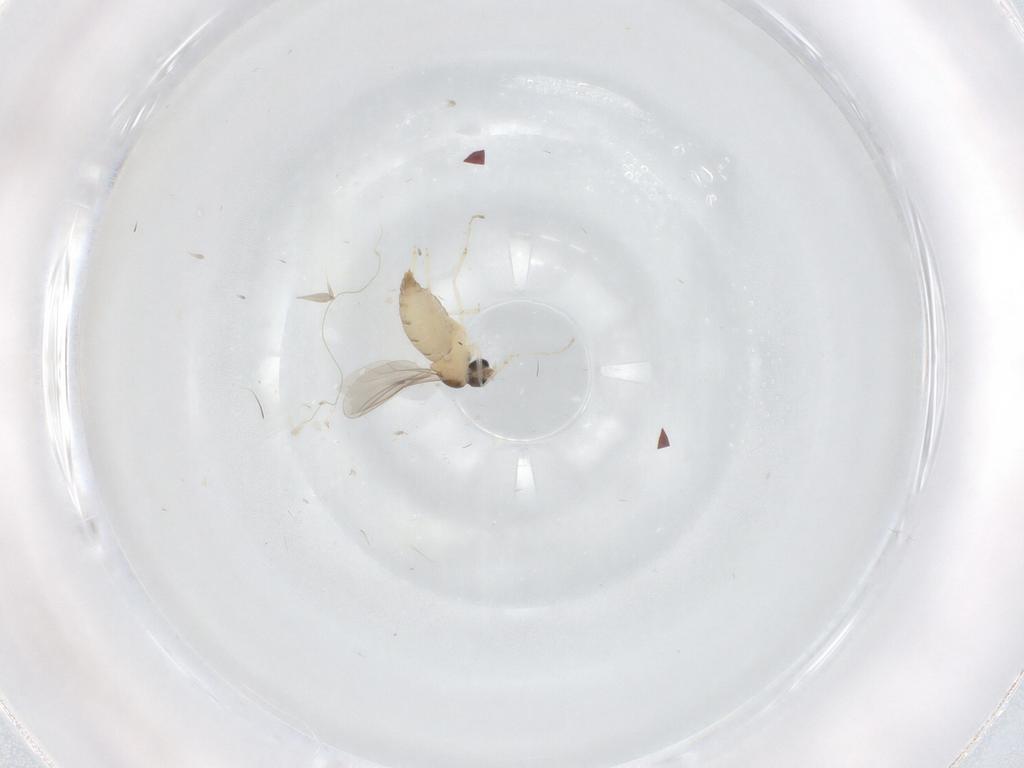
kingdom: Animalia
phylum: Arthropoda
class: Insecta
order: Diptera
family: Cecidomyiidae
